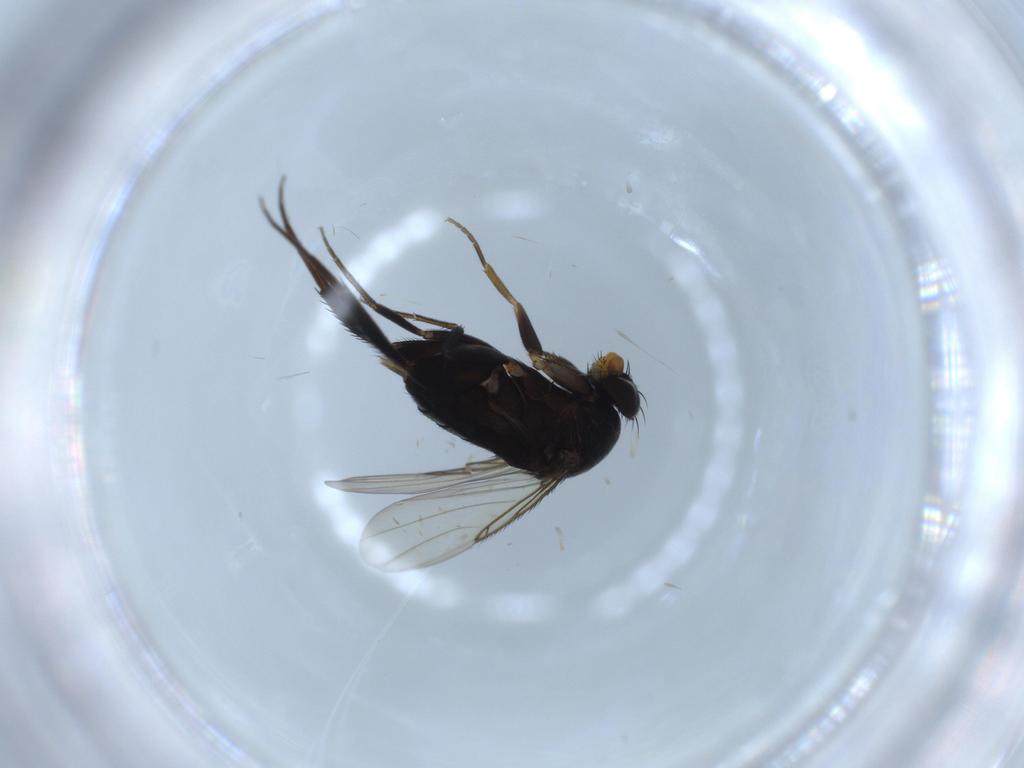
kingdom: Animalia
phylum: Arthropoda
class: Insecta
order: Diptera
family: Phoridae
